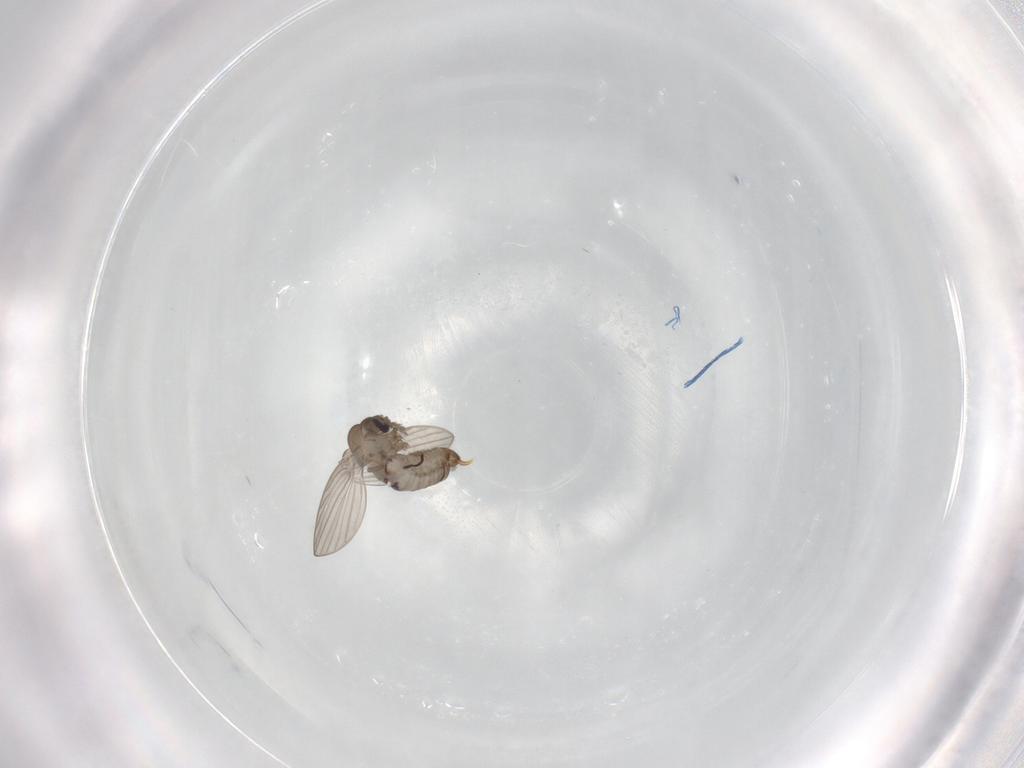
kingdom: Animalia
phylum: Arthropoda
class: Insecta
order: Diptera
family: Psychodidae
